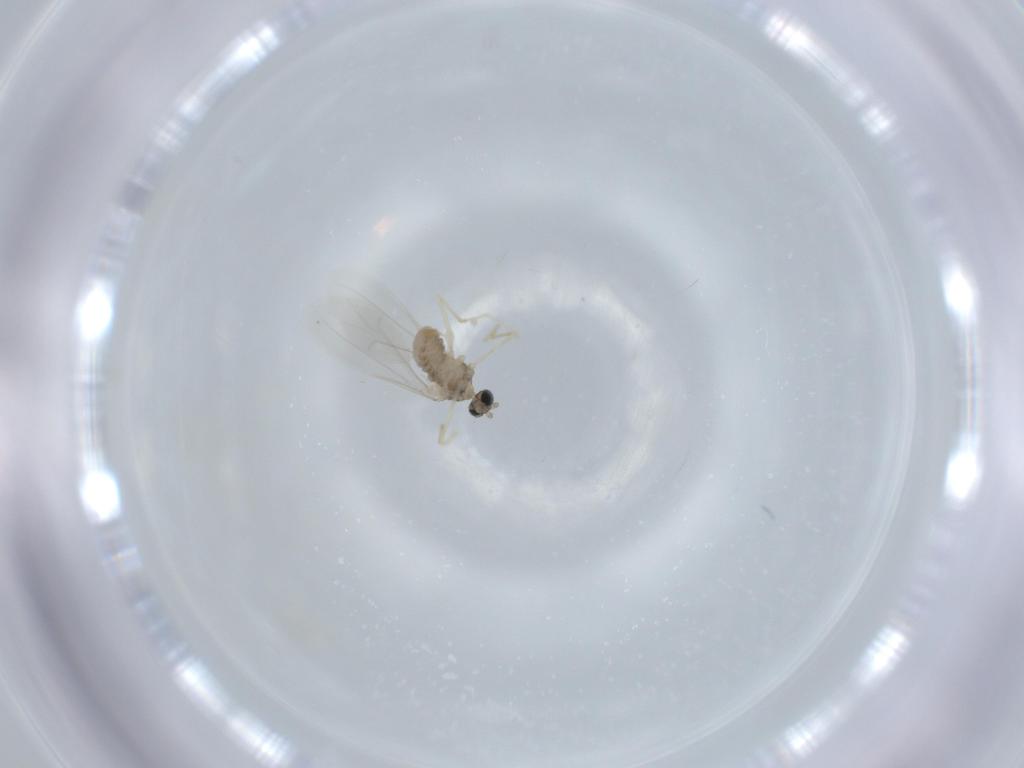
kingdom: Animalia
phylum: Arthropoda
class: Insecta
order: Diptera
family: Cecidomyiidae
